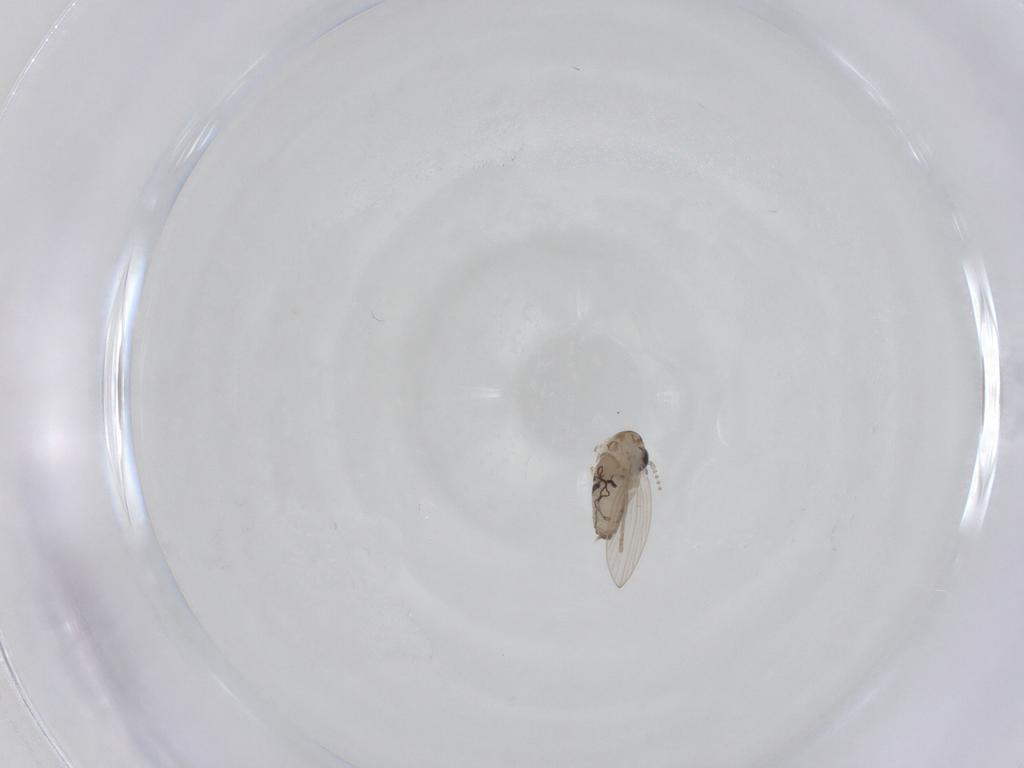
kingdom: Animalia
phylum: Arthropoda
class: Insecta
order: Diptera
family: Psychodidae
